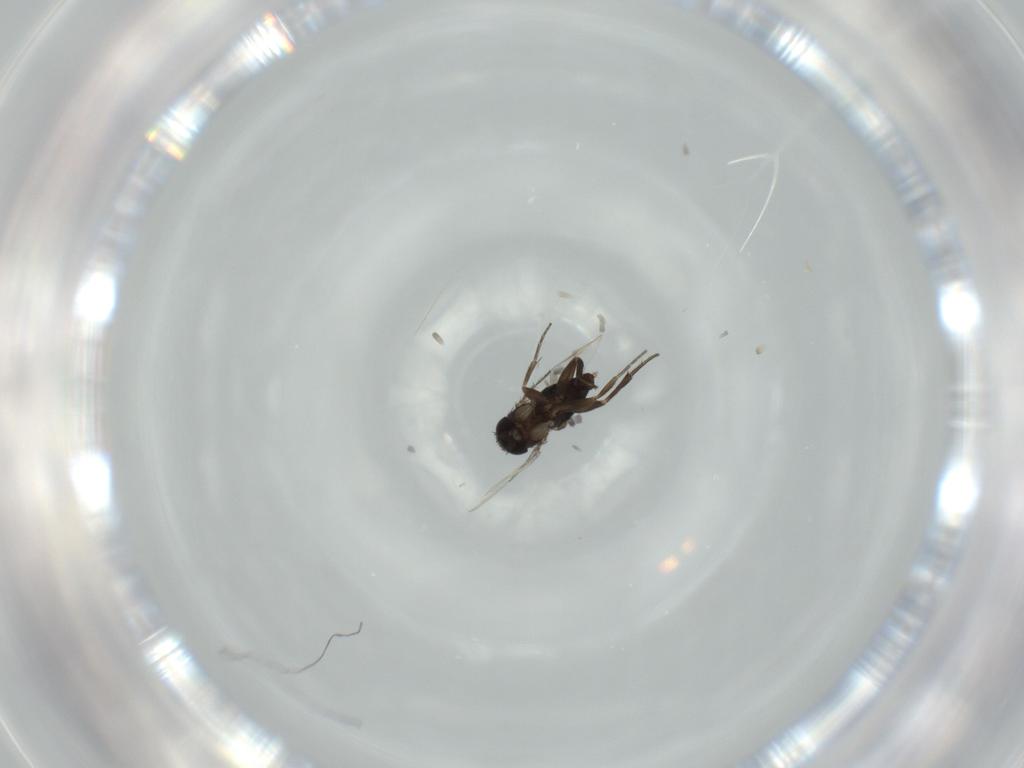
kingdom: Animalia
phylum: Arthropoda
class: Insecta
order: Diptera
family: Phoridae
